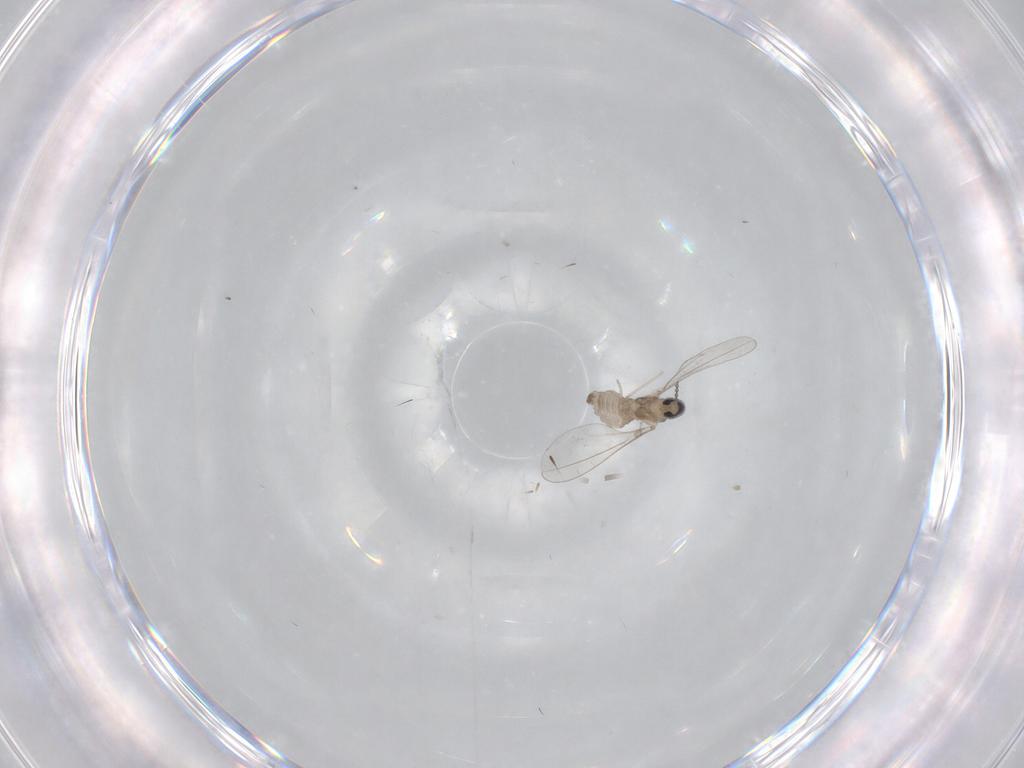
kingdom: Animalia
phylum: Arthropoda
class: Insecta
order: Diptera
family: Cecidomyiidae
